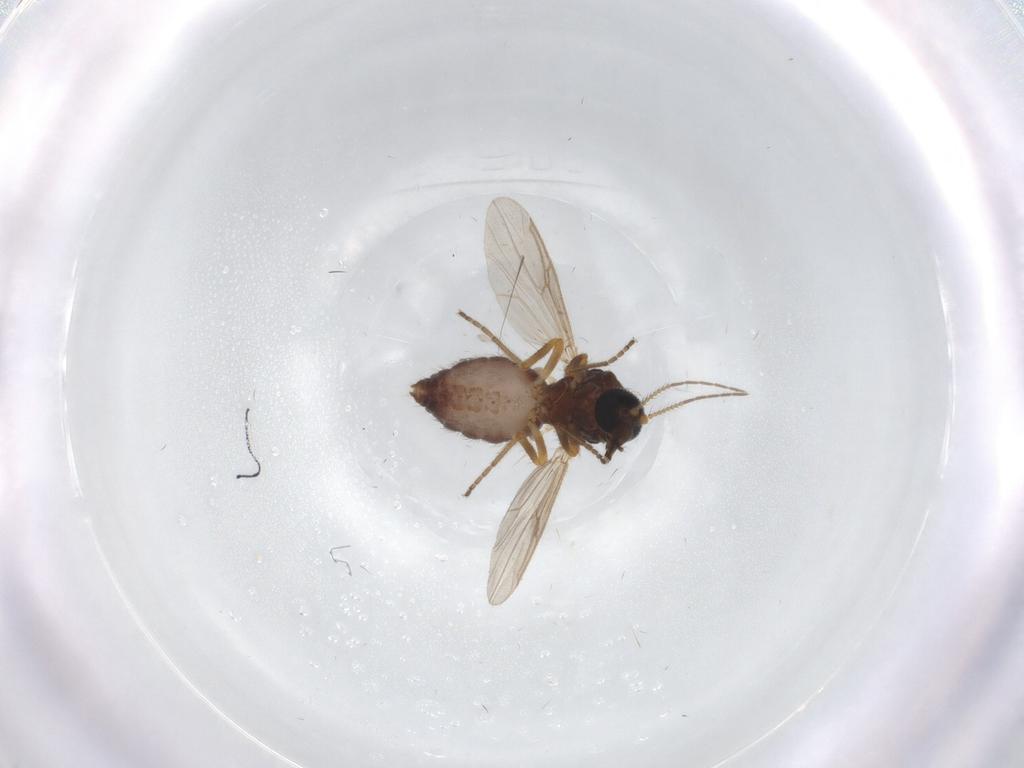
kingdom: Animalia
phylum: Arthropoda
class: Insecta
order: Diptera
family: Ceratopogonidae
